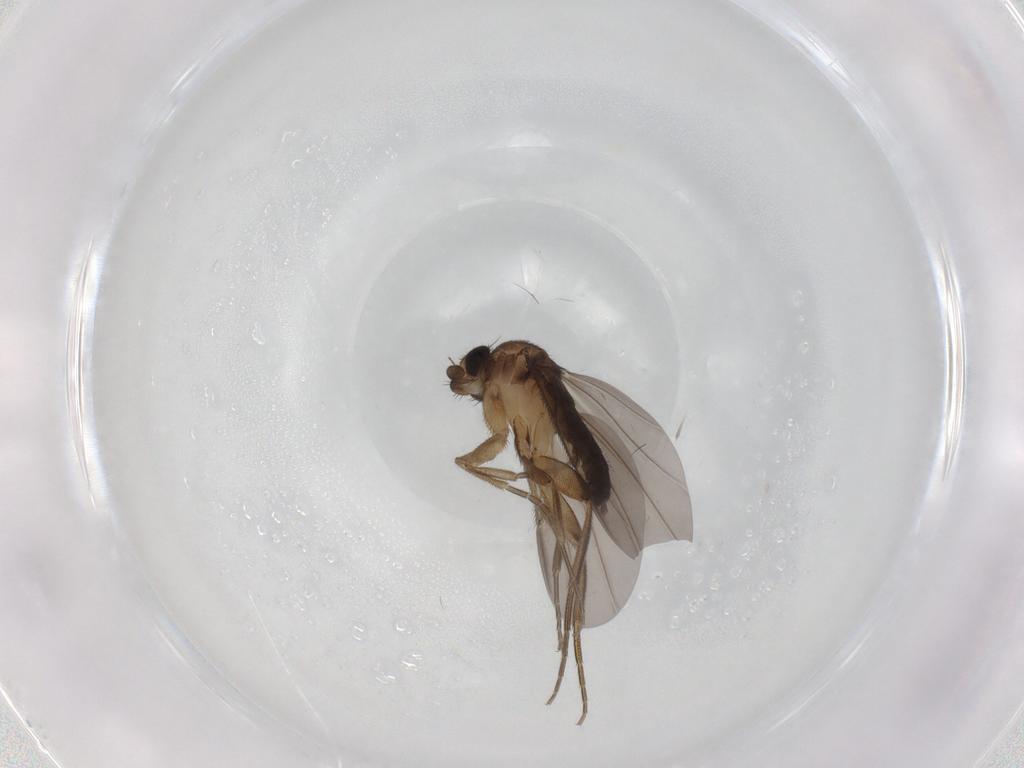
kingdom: Animalia
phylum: Arthropoda
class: Insecta
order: Diptera
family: Phoridae
